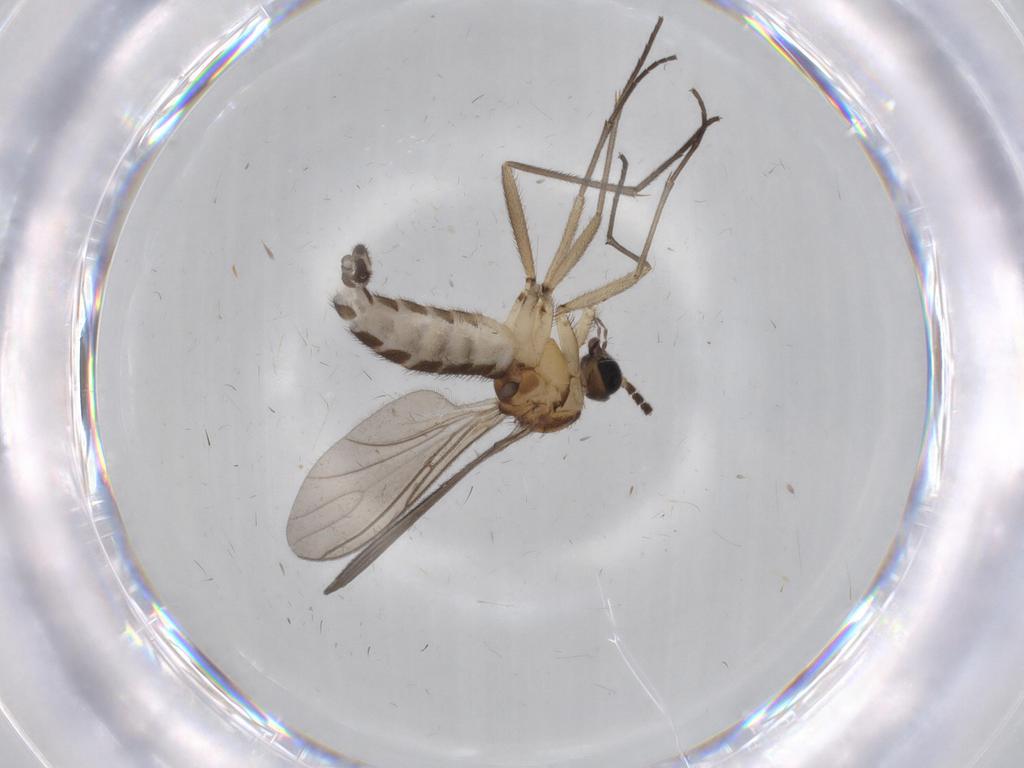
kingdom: Animalia
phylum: Arthropoda
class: Insecta
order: Diptera
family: Sciaridae
